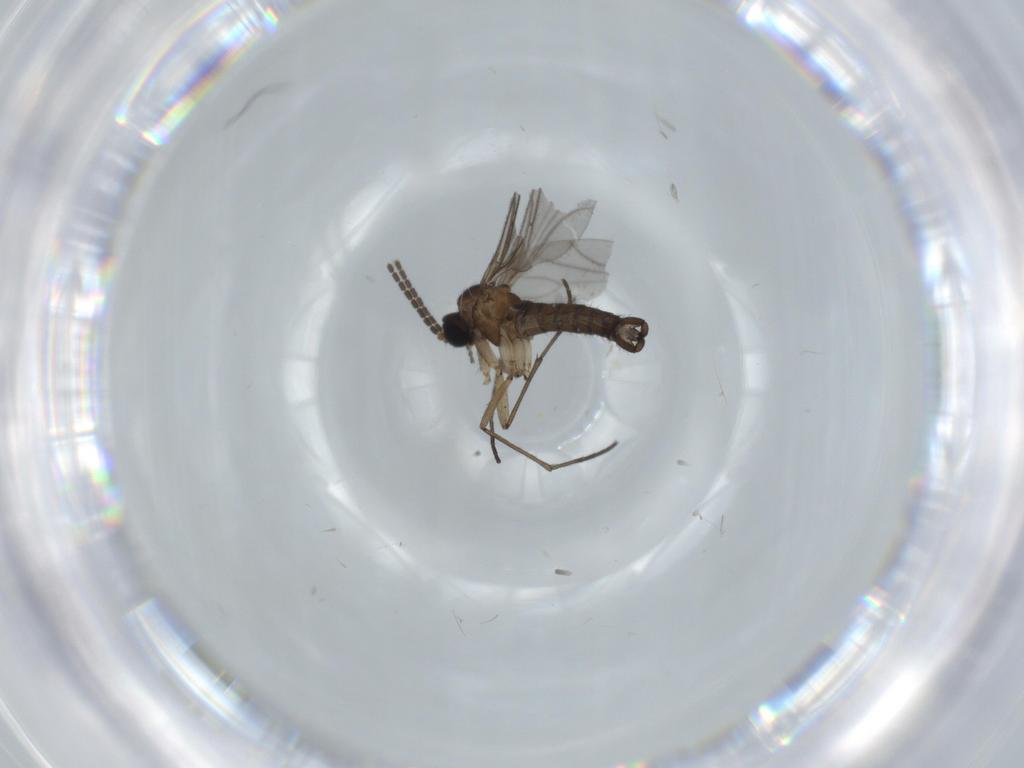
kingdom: Animalia
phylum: Arthropoda
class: Insecta
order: Diptera
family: Sciaridae
